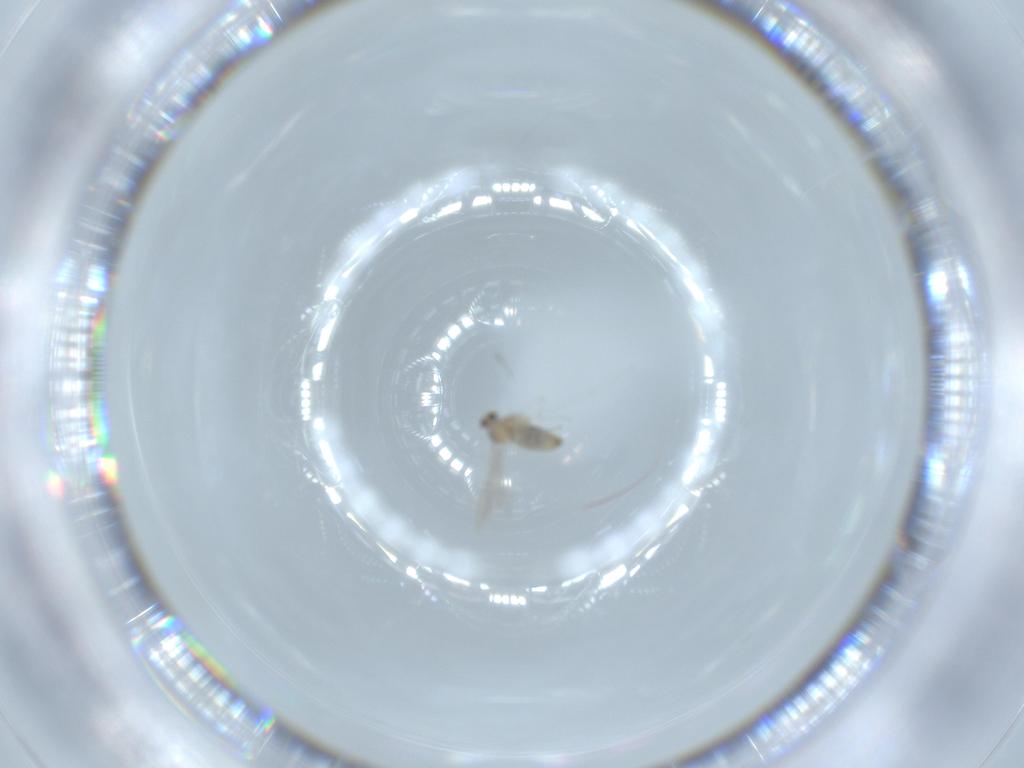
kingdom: Animalia
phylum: Arthropoda
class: Insecta
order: Diptera
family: Cecidomyiidae
